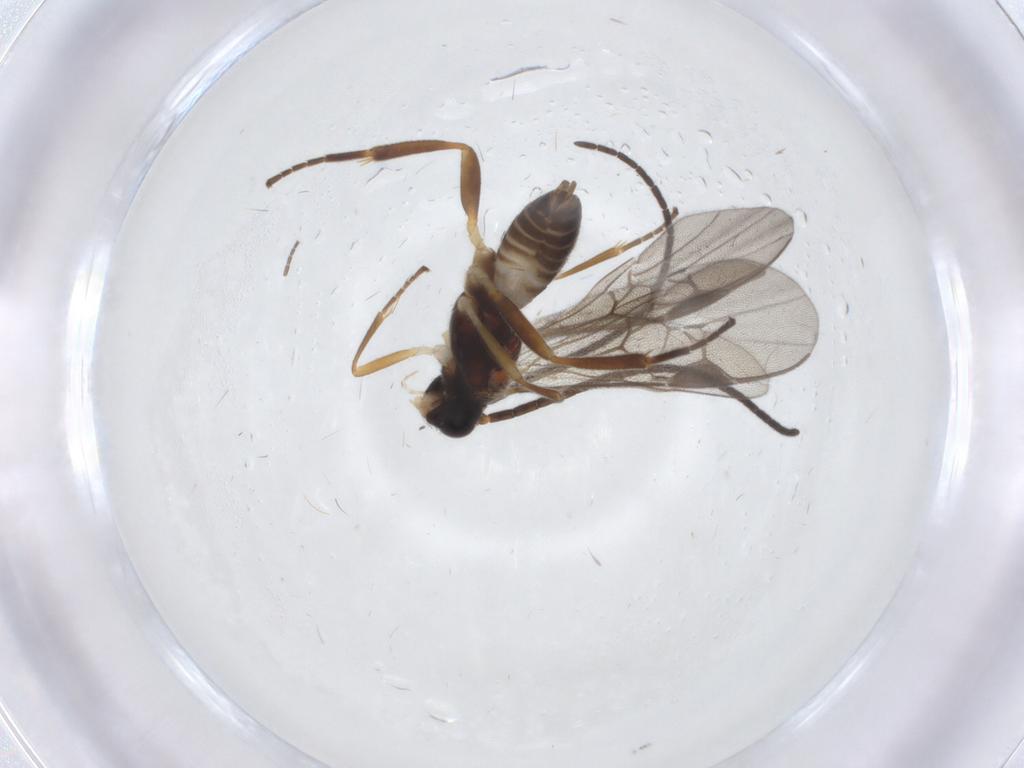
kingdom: Animalia
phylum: Arthropoda
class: Insecta
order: Hymenoptera
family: Braconidae
